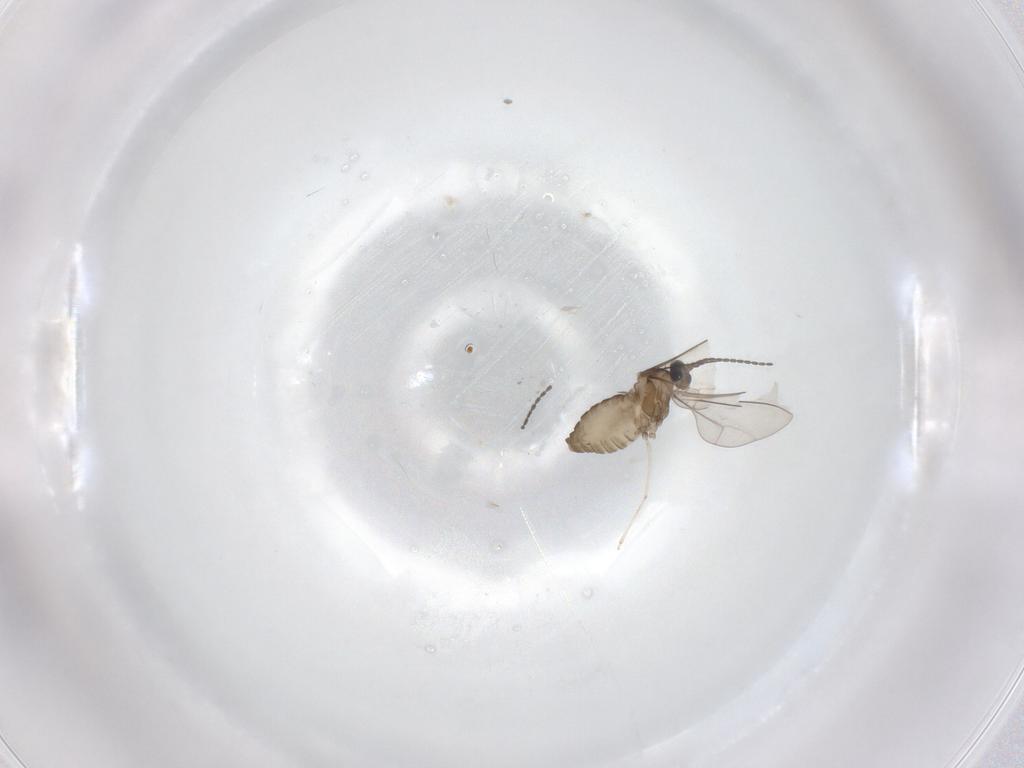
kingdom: Animalia
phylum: Arthropoda
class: Insecta
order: Diptera
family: Cecidomyiidae
